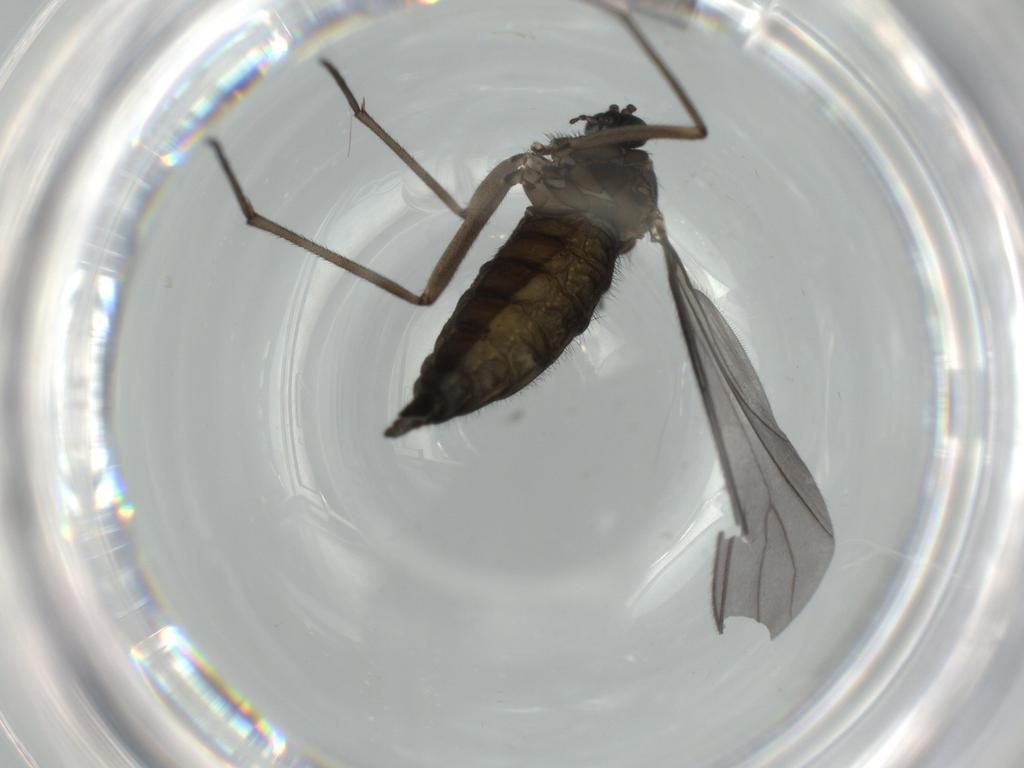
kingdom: Animalia
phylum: Arthropoda
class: Insecta
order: Diptera
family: Sciaridae
